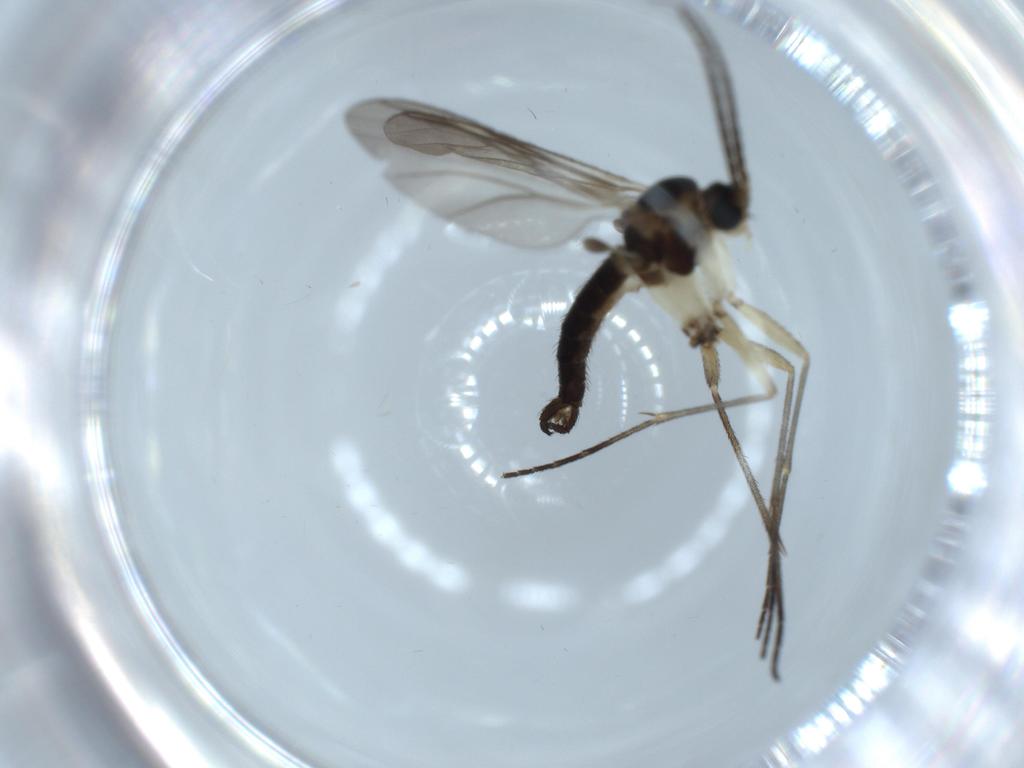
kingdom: Animalia
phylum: Arthropoda
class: Insecta
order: Diptera
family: Sciaridae
